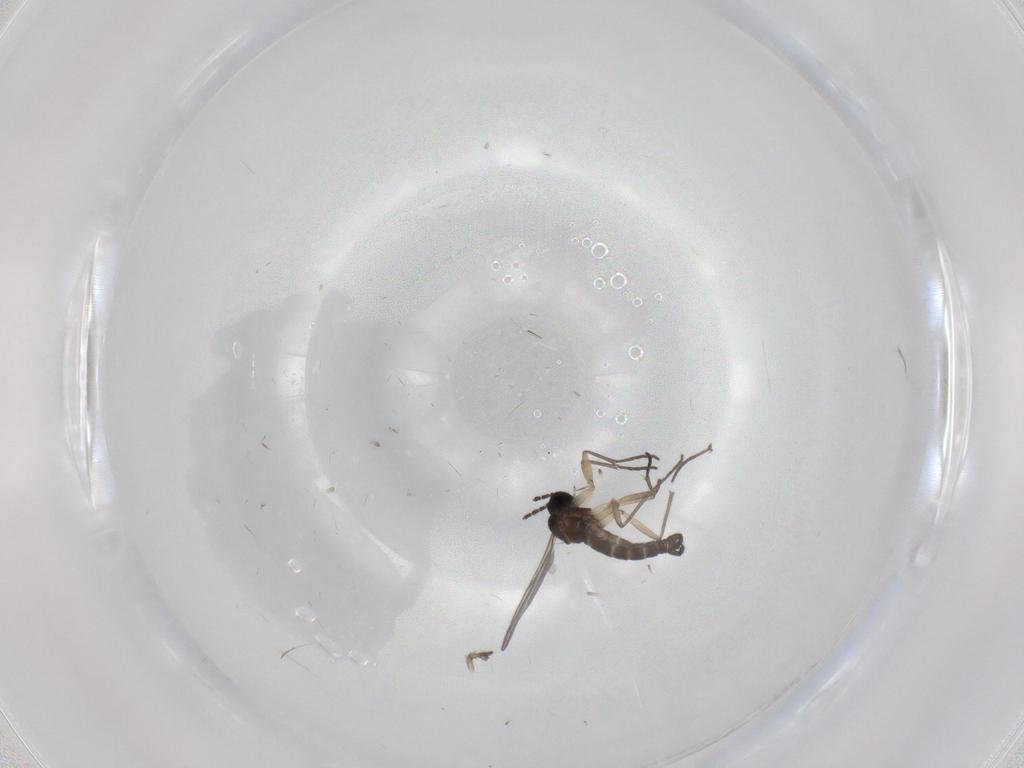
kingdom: Animalia
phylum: Arthropoda
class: Insecta
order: Diptera
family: Sciaridae
